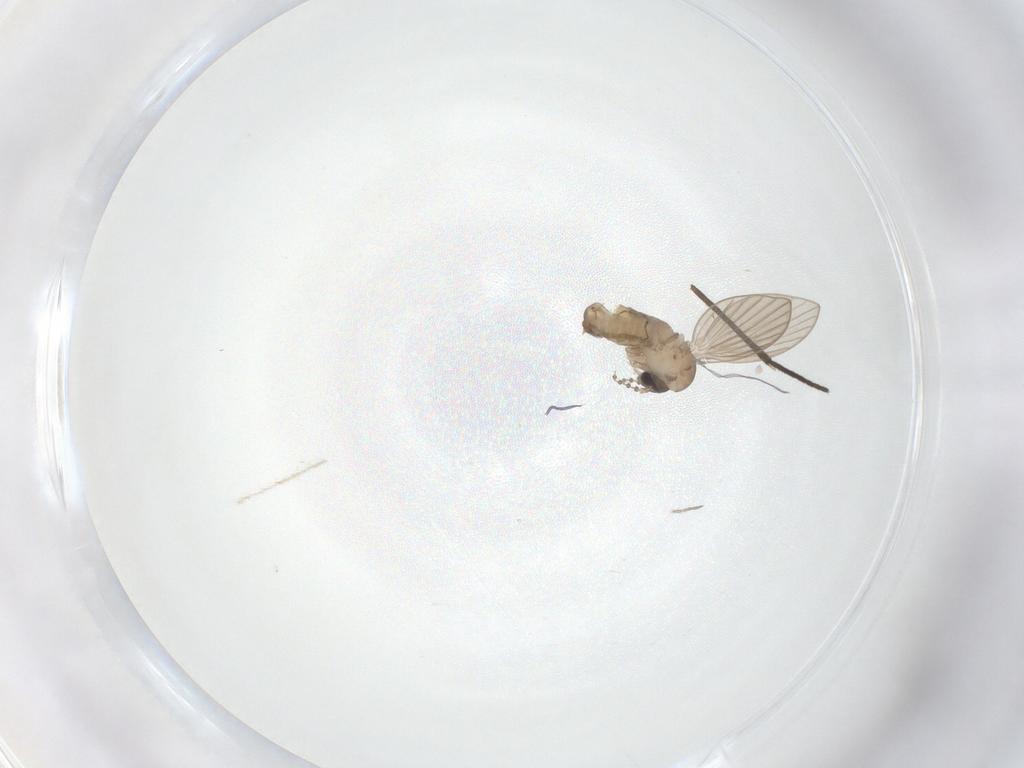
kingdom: Animalia
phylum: Arthropoda
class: Insecta
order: Diptera
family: Psychodidae
